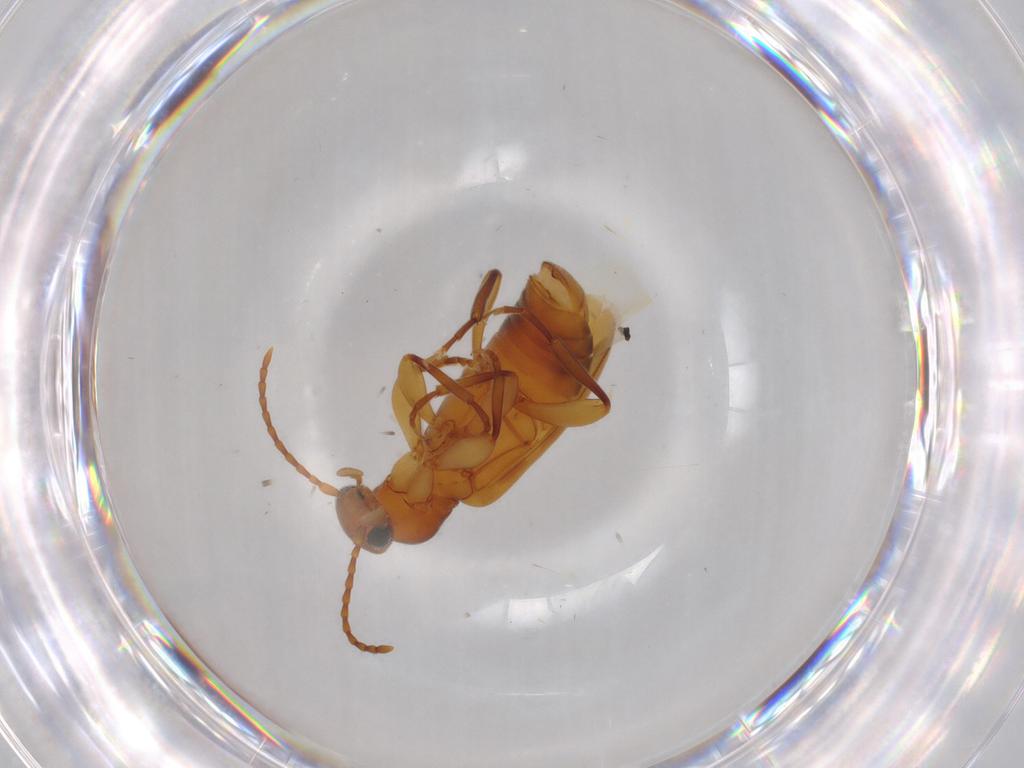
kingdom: Animalia
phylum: Arthropoda
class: Insecta
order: Coleoptera
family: Anthicidae
